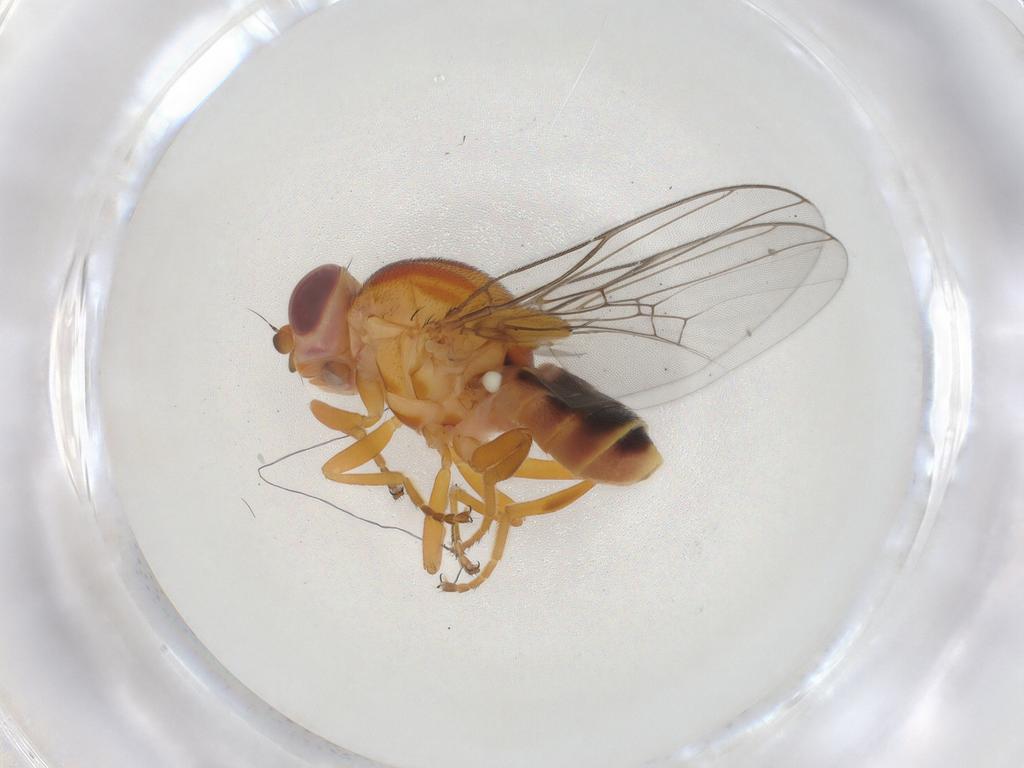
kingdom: Animalia
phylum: Arthropoda
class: Insecta
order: Diptera
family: Chloropidae
